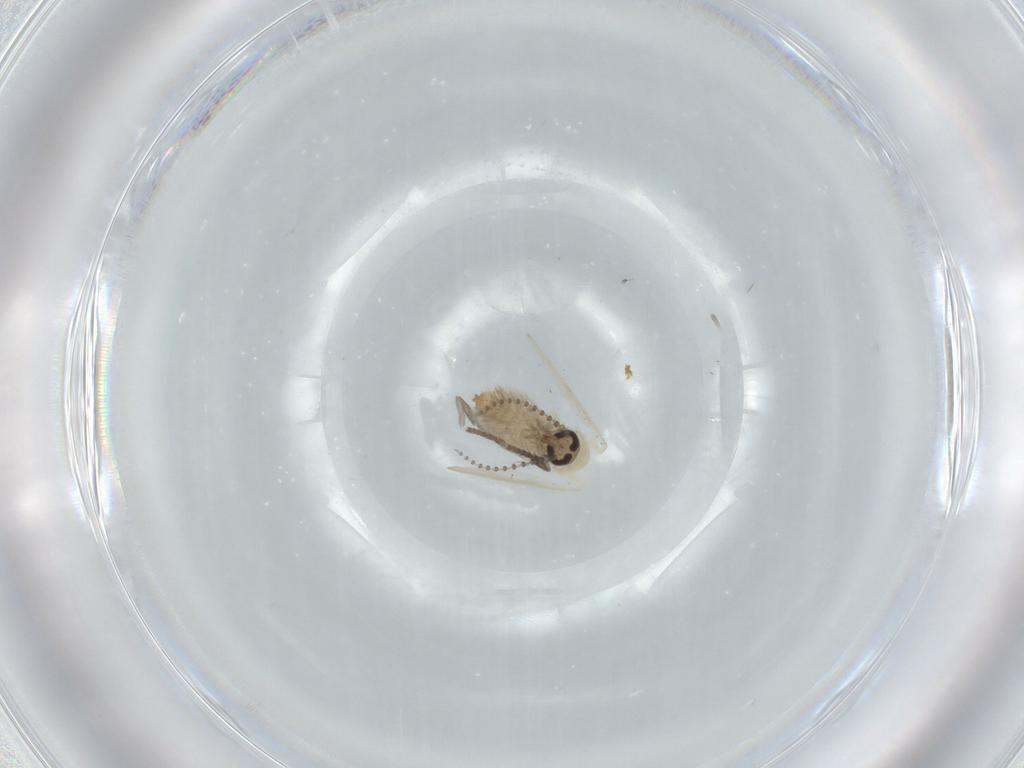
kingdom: Animalia
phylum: Arthropoda
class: Insecta
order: Diptera
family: Psychodidae
